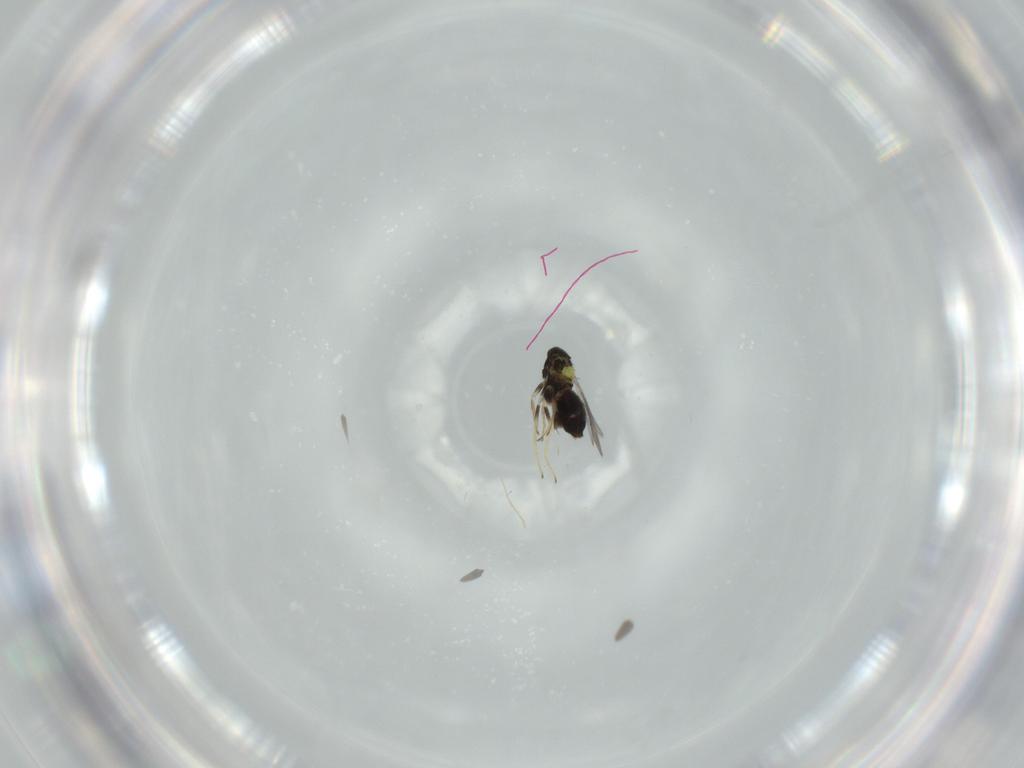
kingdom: Animalia
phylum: Arthropoda
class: Insecta
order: Hymenoptera
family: Aphelinidae
